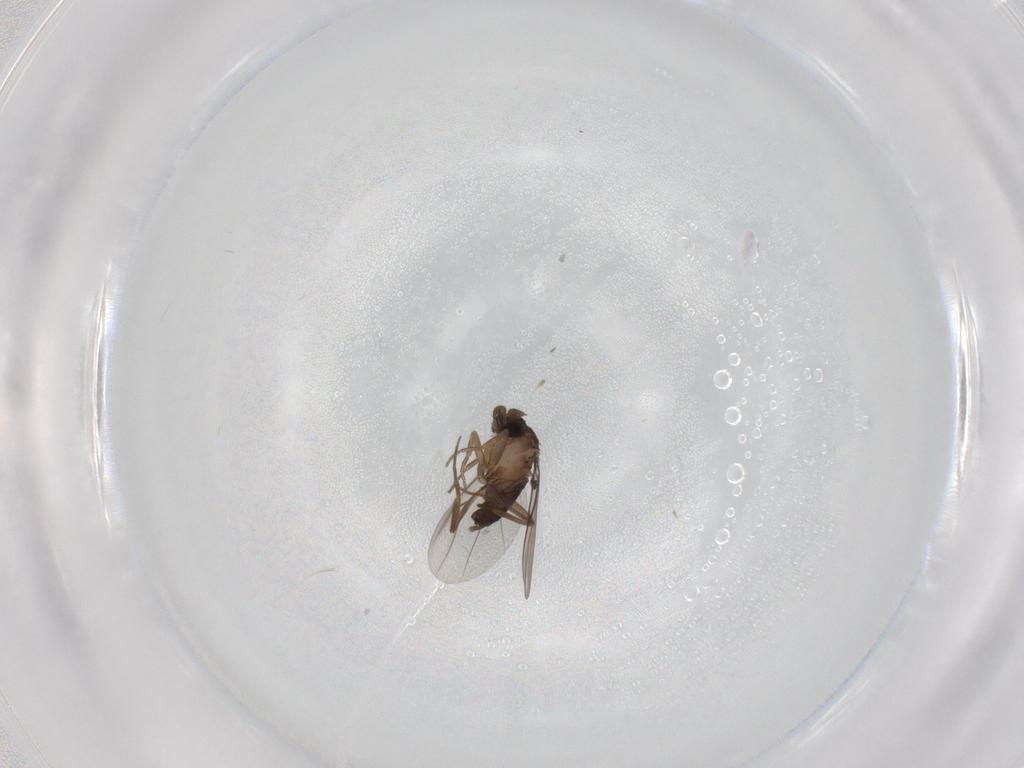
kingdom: Animalia
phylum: Arthropoda
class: Insecta
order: Diptera
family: Phoridae
